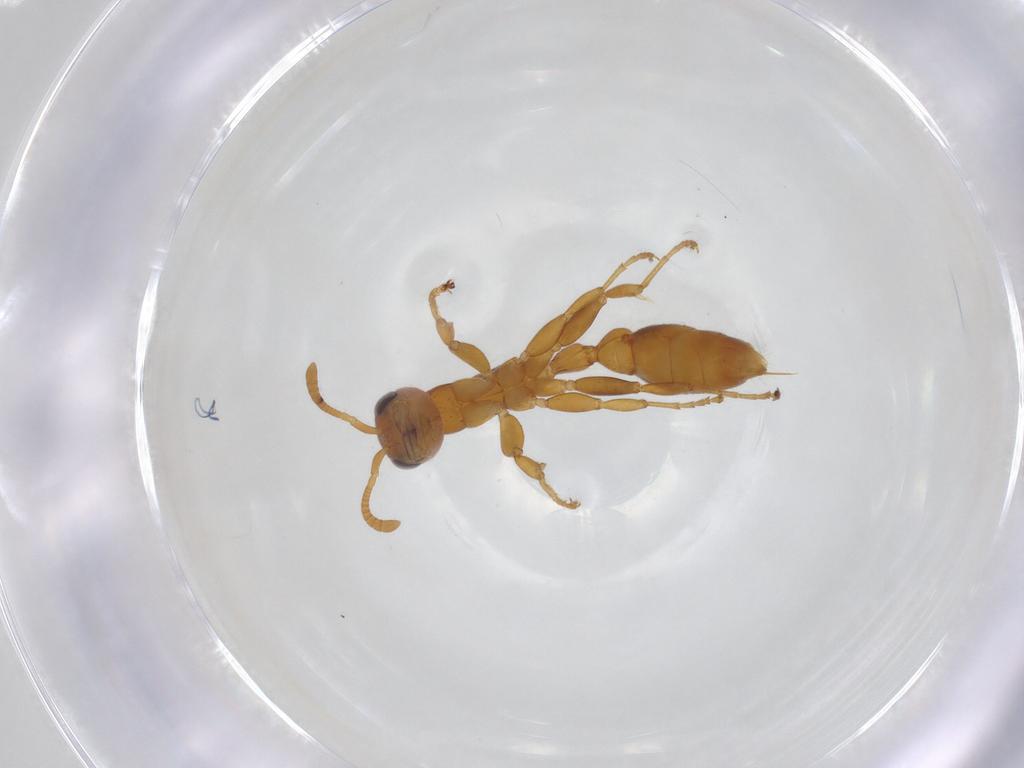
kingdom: Animalia
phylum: Arthropoda
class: Insecta
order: Hymenoptera
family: Formicidae
